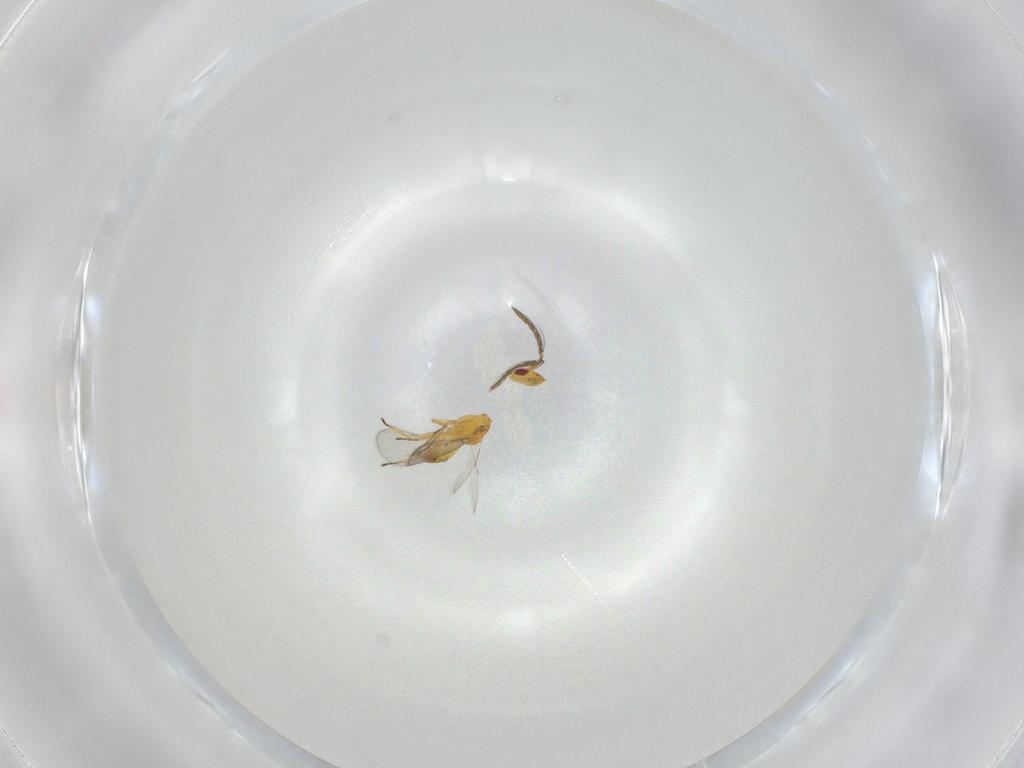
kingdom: Animalia
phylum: Arthropoda
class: Insecta
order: Hymenoptera
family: Eulophidae
